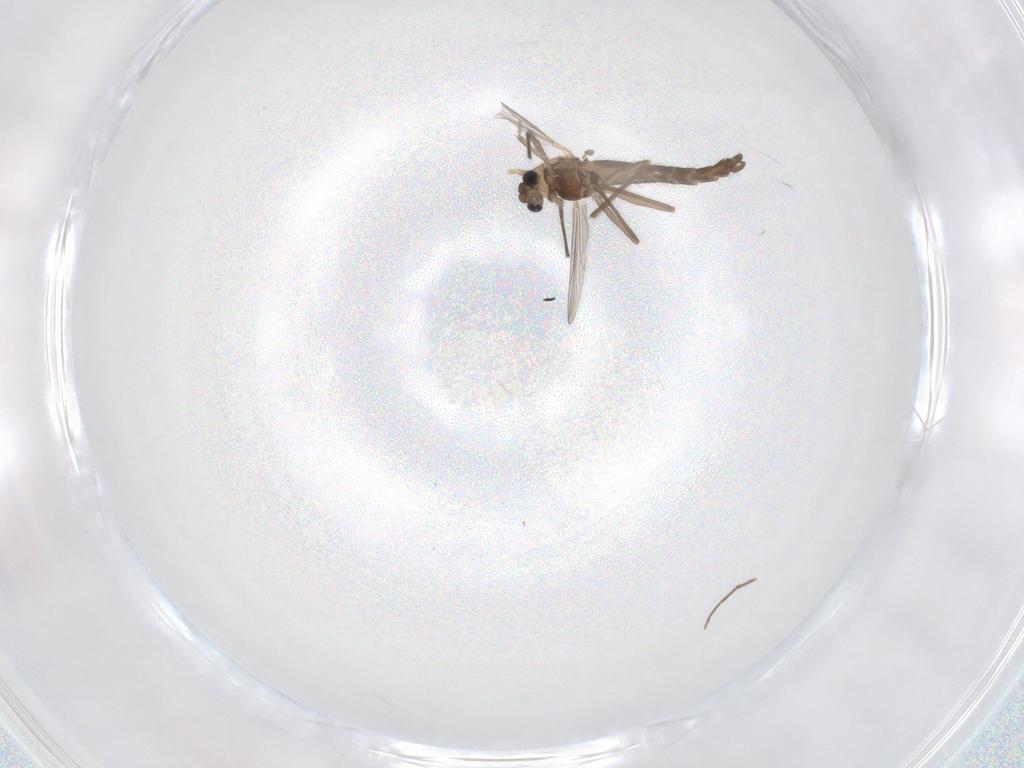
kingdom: Animalia
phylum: Arthropoda
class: Insecta
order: Diptera
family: Chironomidae
